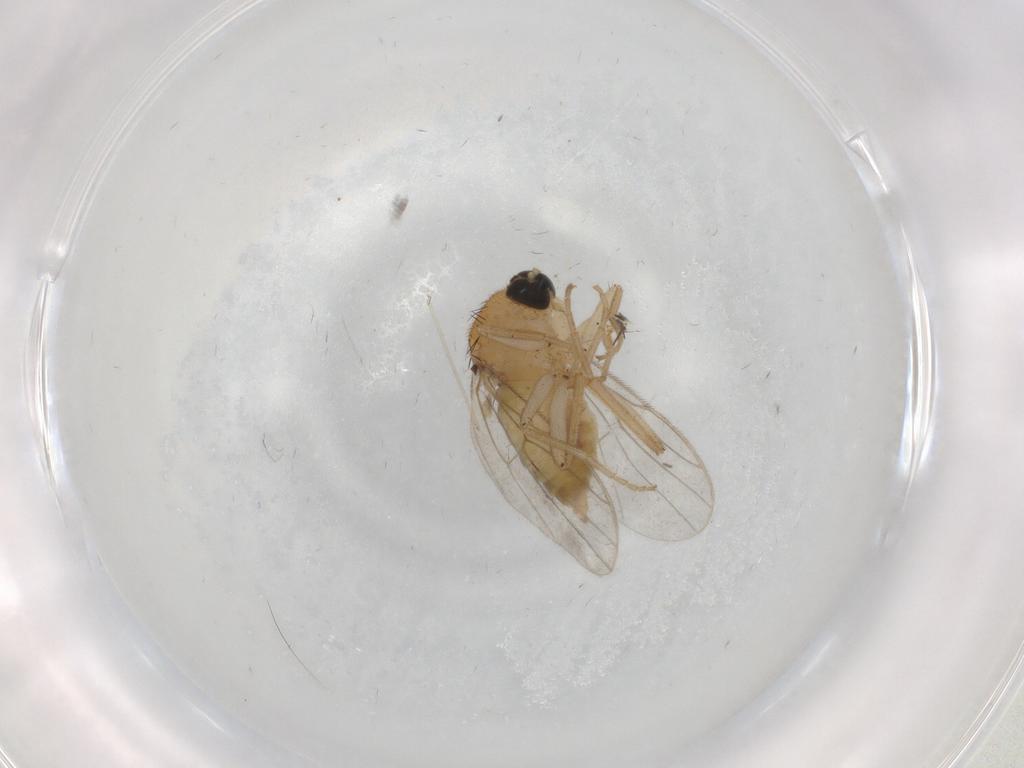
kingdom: Animalia
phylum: Arthropoda
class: Insecta
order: Diptera
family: Hybotidae
